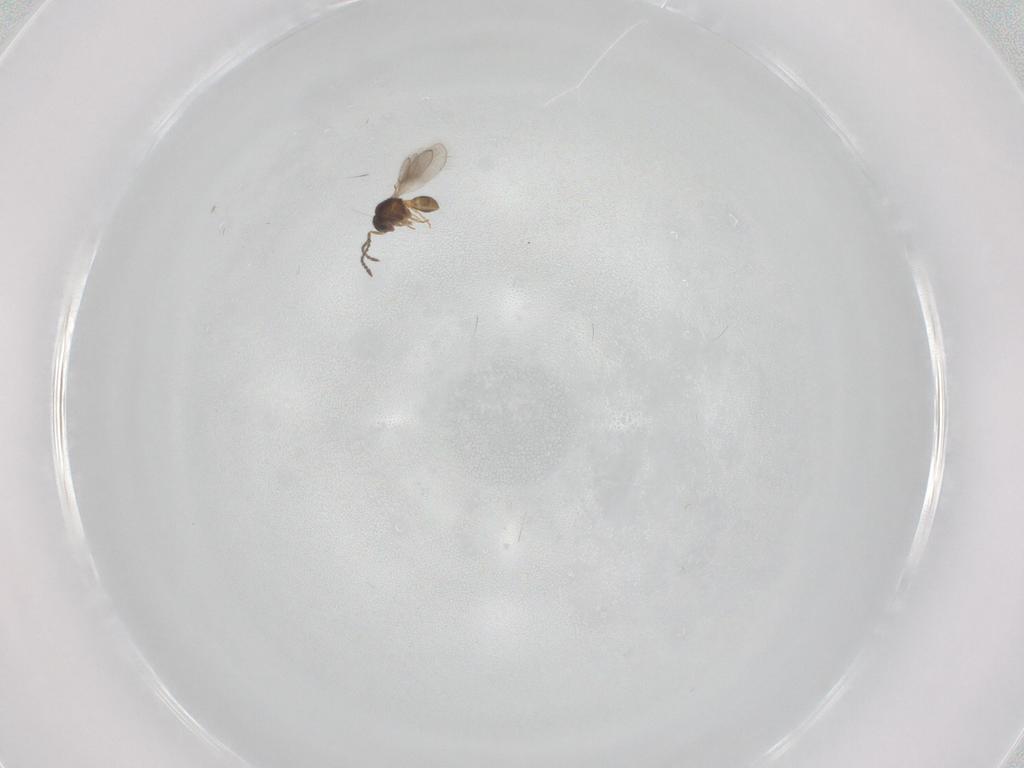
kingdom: Animalia
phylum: Arthropoda
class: Insecta
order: Hymenoptera
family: Scelionidae
